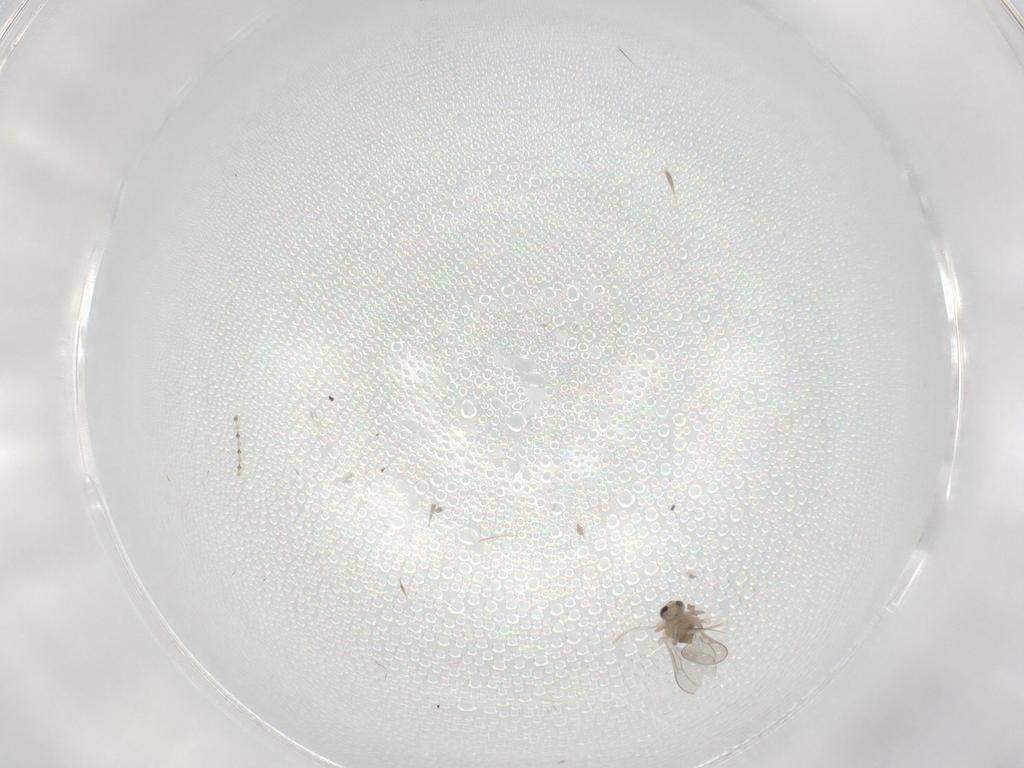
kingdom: Animalia
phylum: Arthropoda
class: Insecta
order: Diptera
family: Cecidomyiidae
